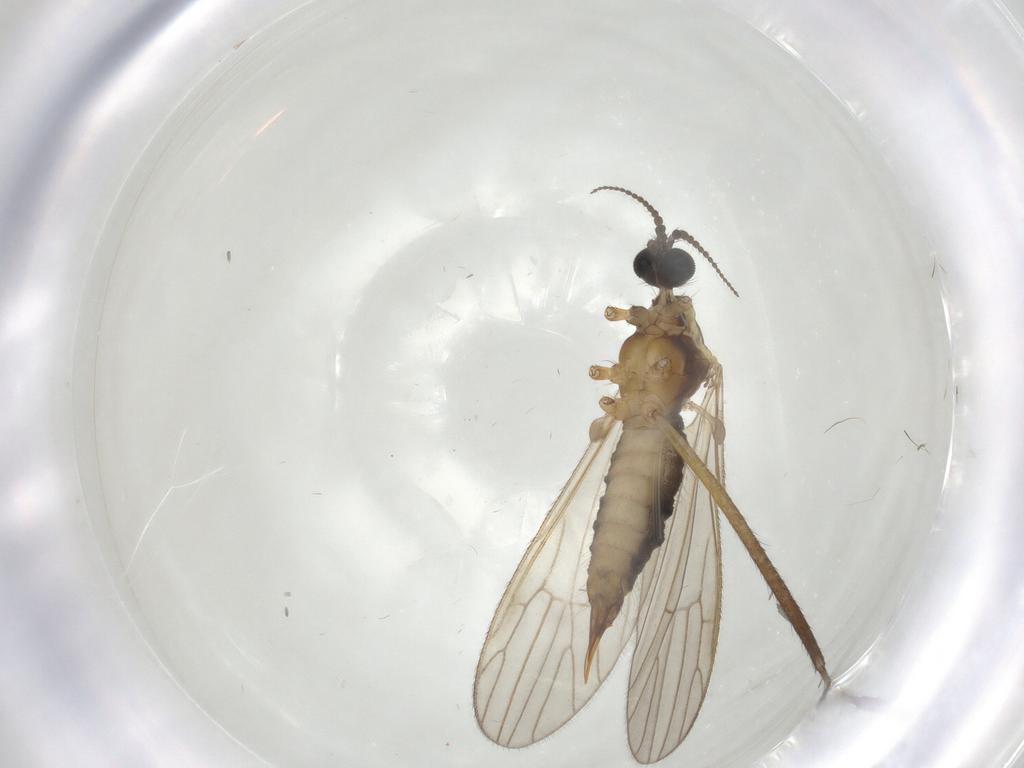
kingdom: Animalia
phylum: Arthropoda
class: Insecta
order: Diptera
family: Agromyzidae
